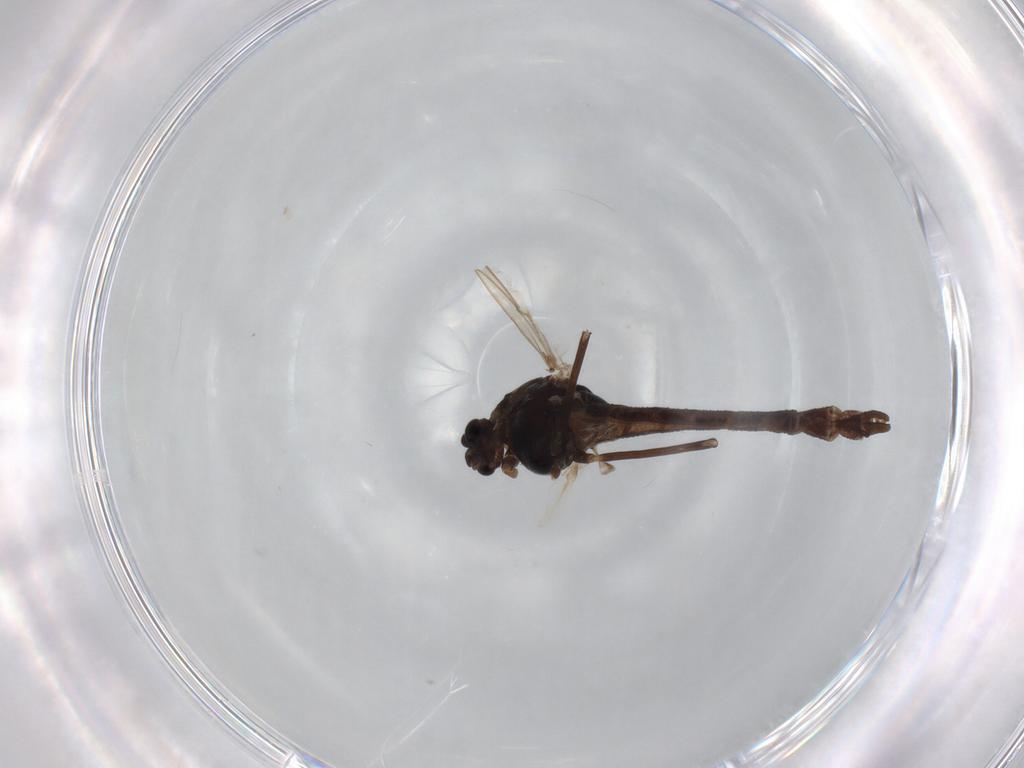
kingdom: Animalia
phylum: Arthropoda
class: Insecta
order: Diptera
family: Chironomidae
